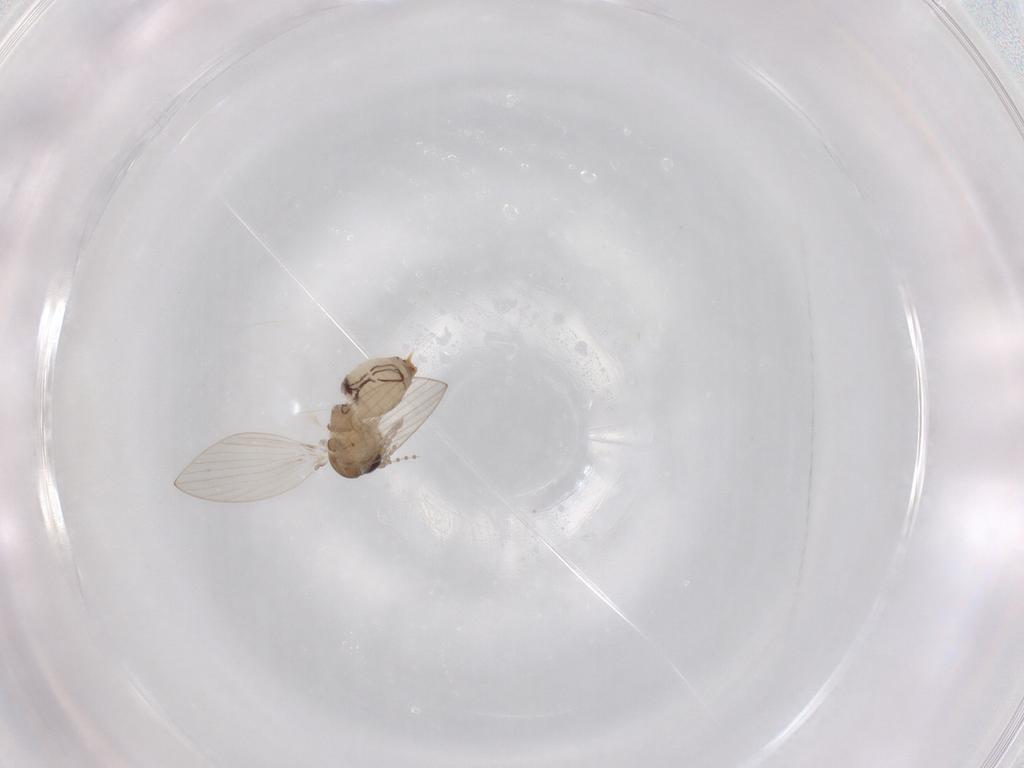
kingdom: Animalia
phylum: Arthropoda
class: Insecta
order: Diptera
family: Psychodidae
